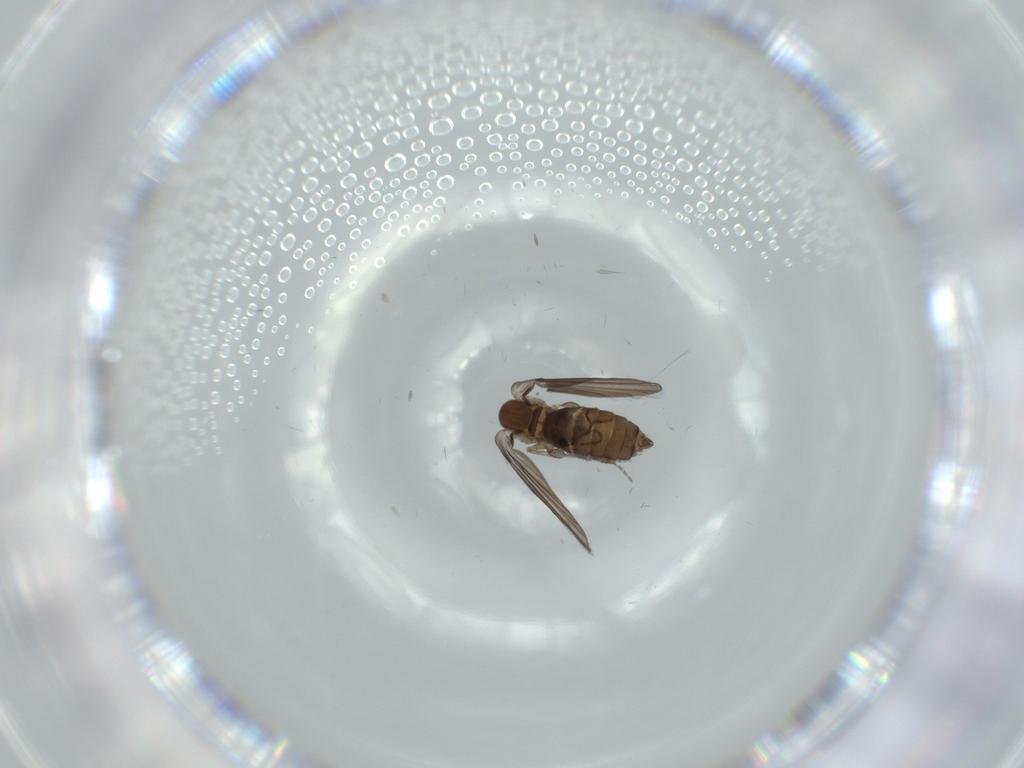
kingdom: Animalia
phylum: Arthropoda
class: Insecta
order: Diptera
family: Psychodidae
